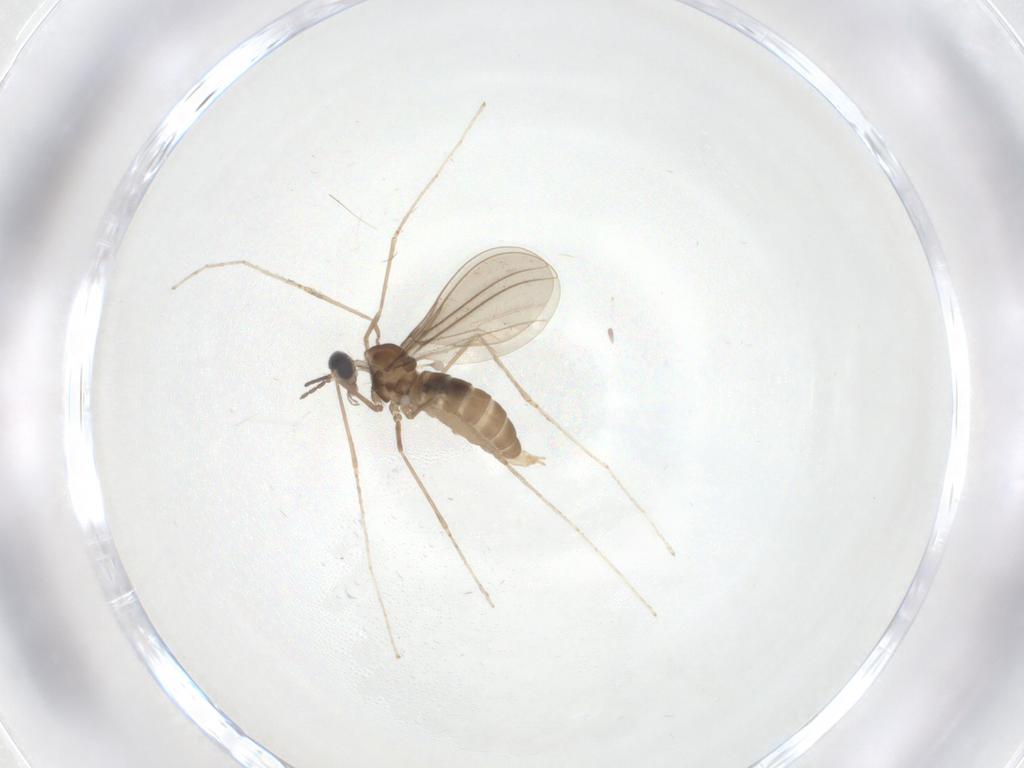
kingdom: Animalia
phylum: Arthropoda
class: Insecta
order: Diptera
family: Cecidomyiidae
